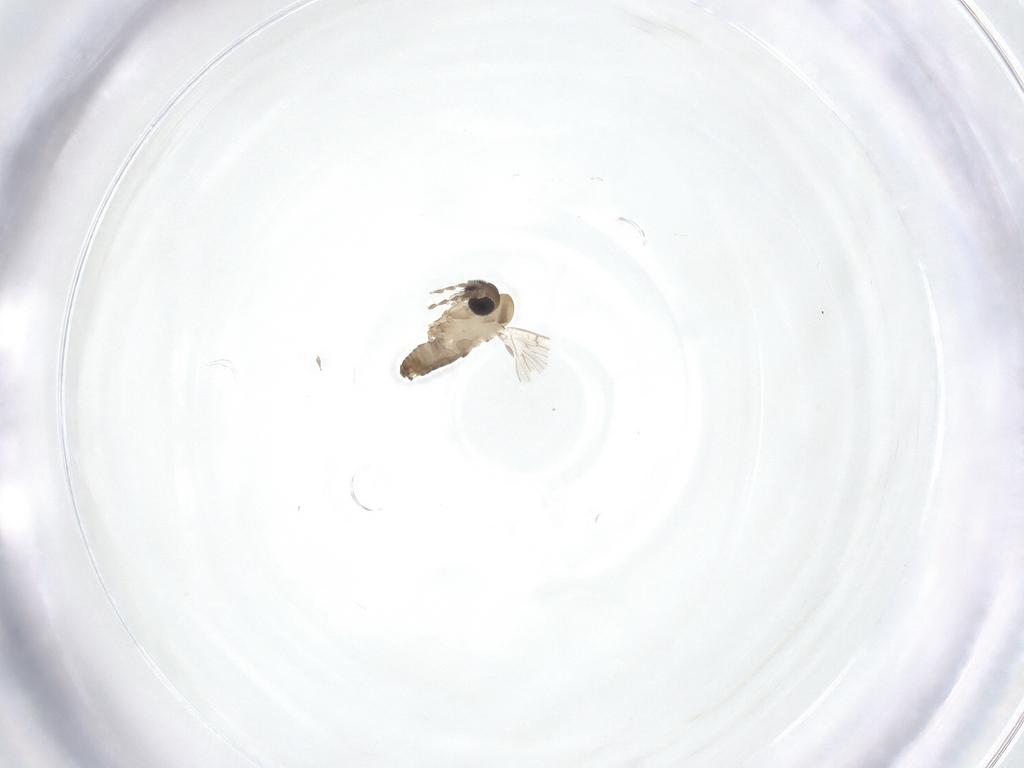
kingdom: Animalia
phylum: Arthropoda
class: Insecta
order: Diptera
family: Psychodidae
